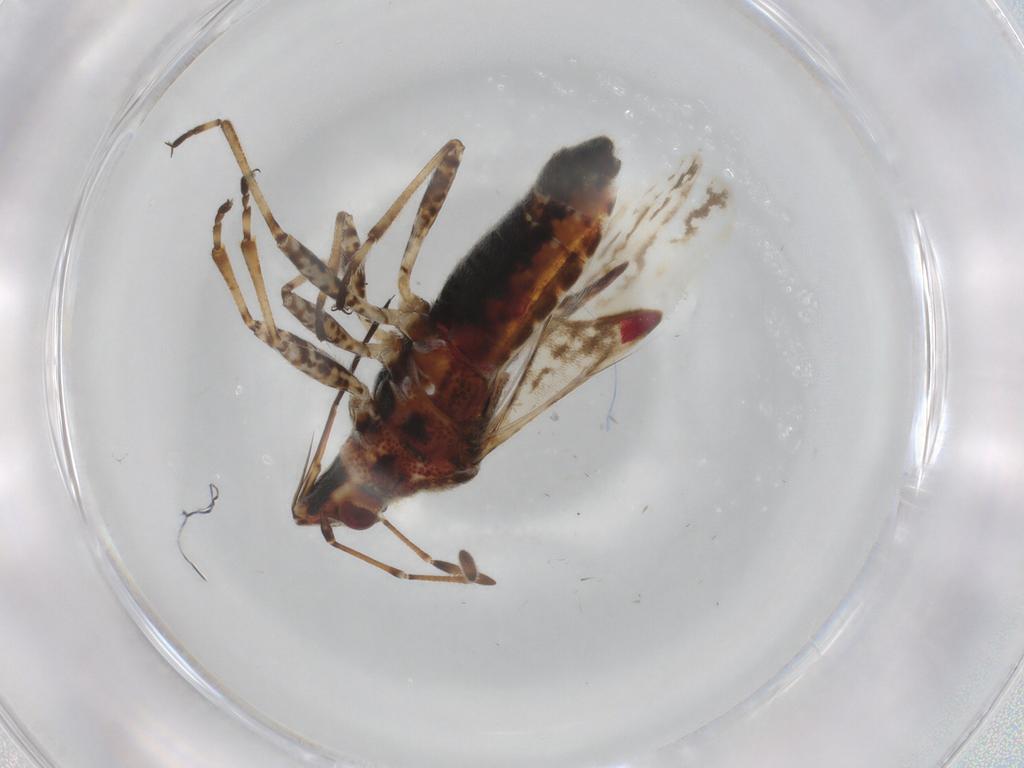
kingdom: Animalia
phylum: Arthropoda
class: Insecta
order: Hemiptera
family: Lygaeidae
